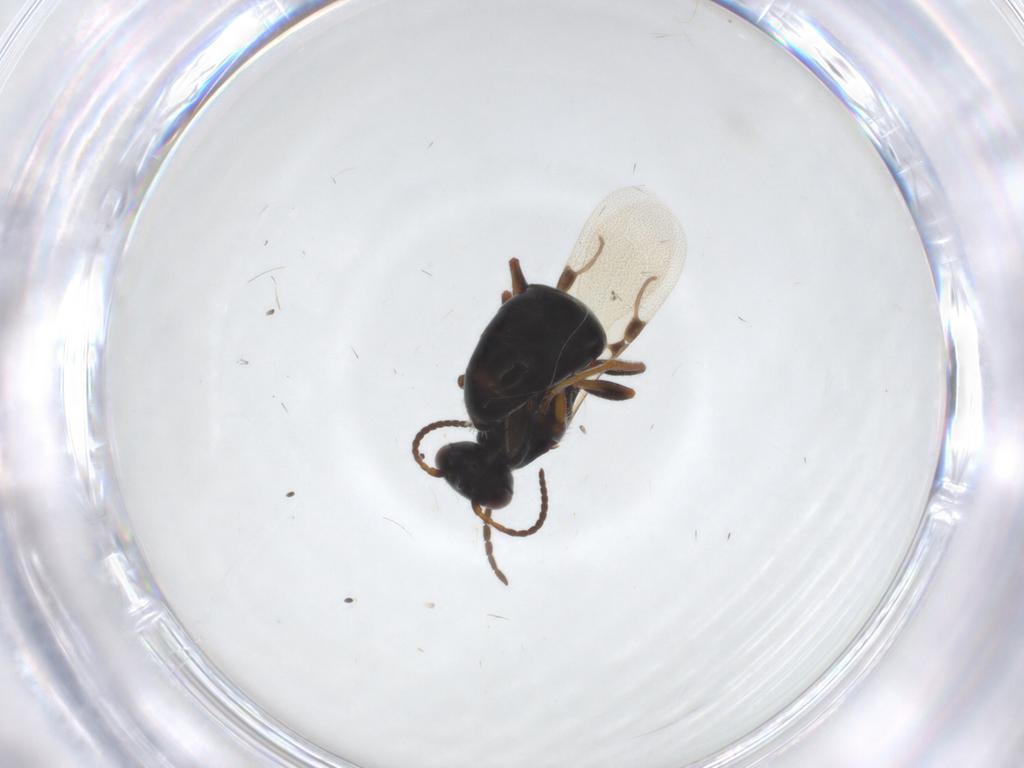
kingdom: Animalia
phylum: Arthropoda
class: Insecta
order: Hymenoptera
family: Bethylidae
